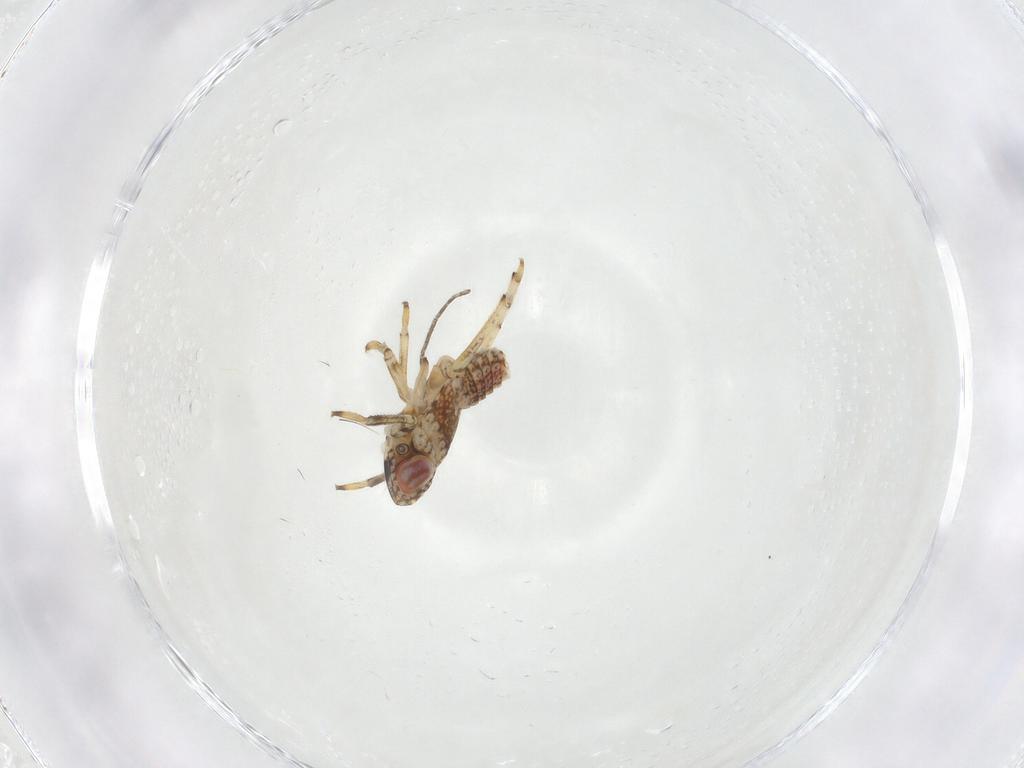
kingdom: Animalia
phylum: Arthropoda
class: Insecta
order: Hemiptera
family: Issidae
